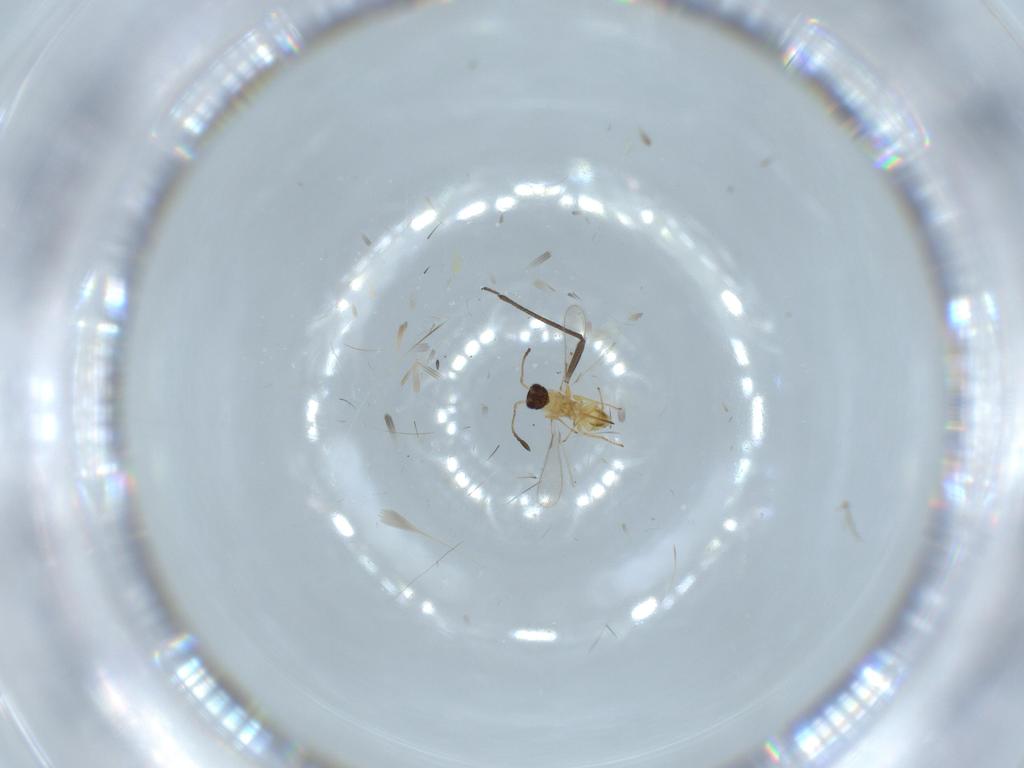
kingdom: Animalia
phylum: Arthropoda
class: Insecta
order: Hymenoptera
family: Mymaridae
